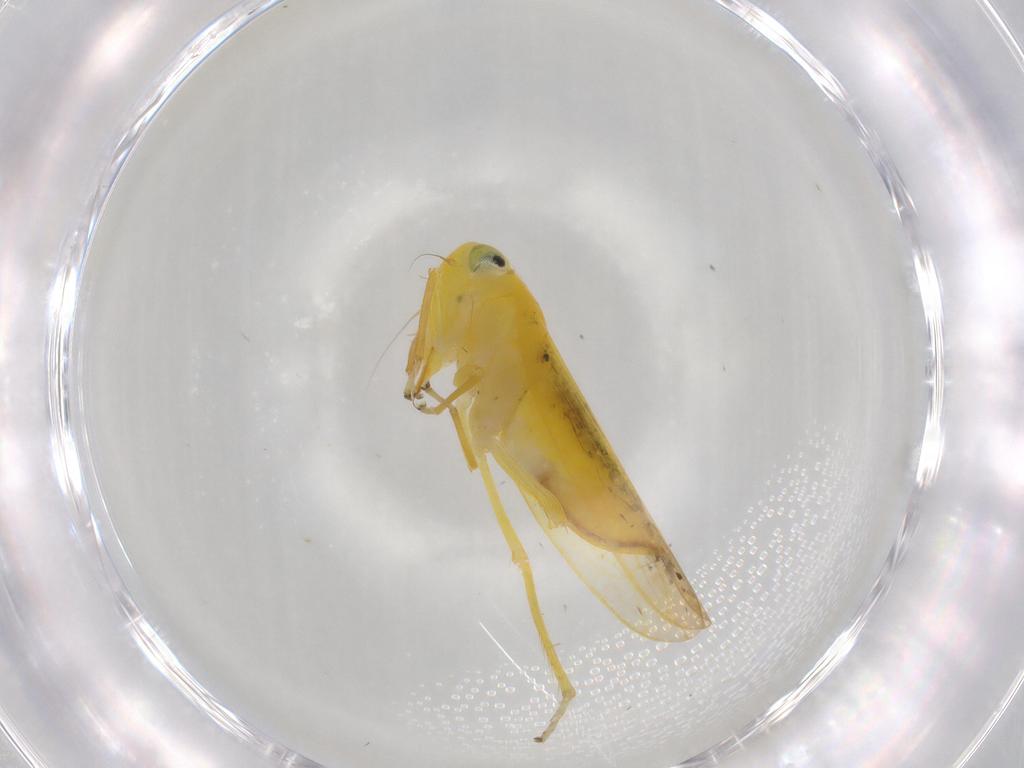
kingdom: Animalia
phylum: Arthropoda
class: Insecta
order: Hemiptera
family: Cicadellidae
